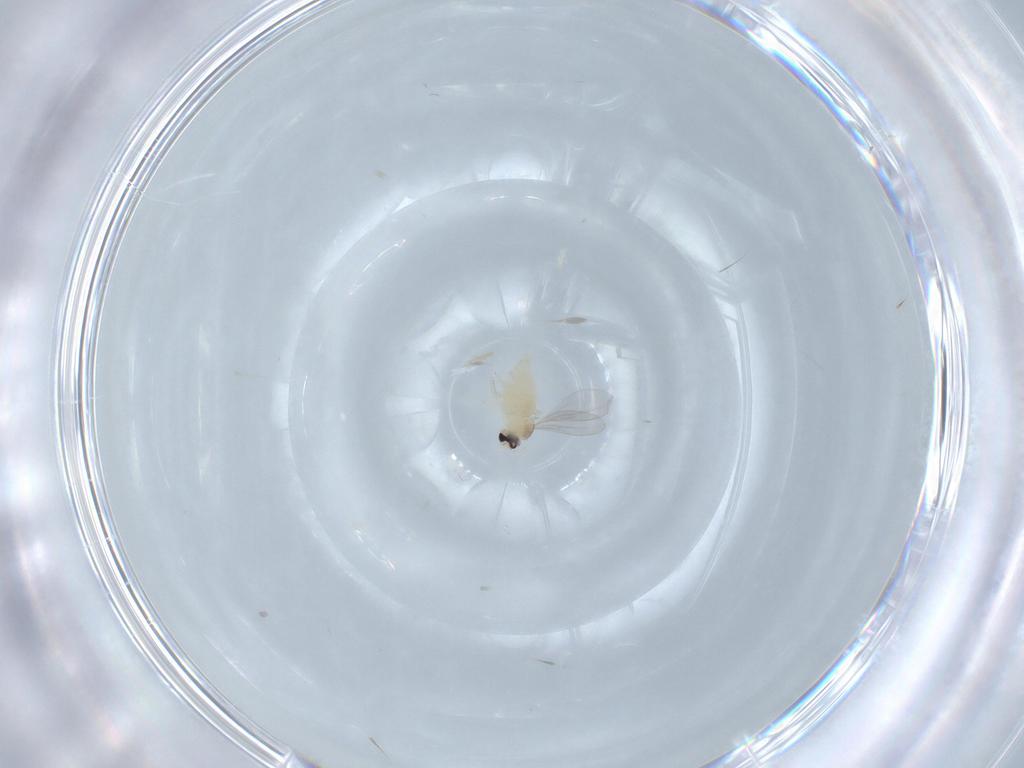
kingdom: Animalia
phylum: Arthropoda
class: Insecta
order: Diptera
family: Cecidomyiidae
